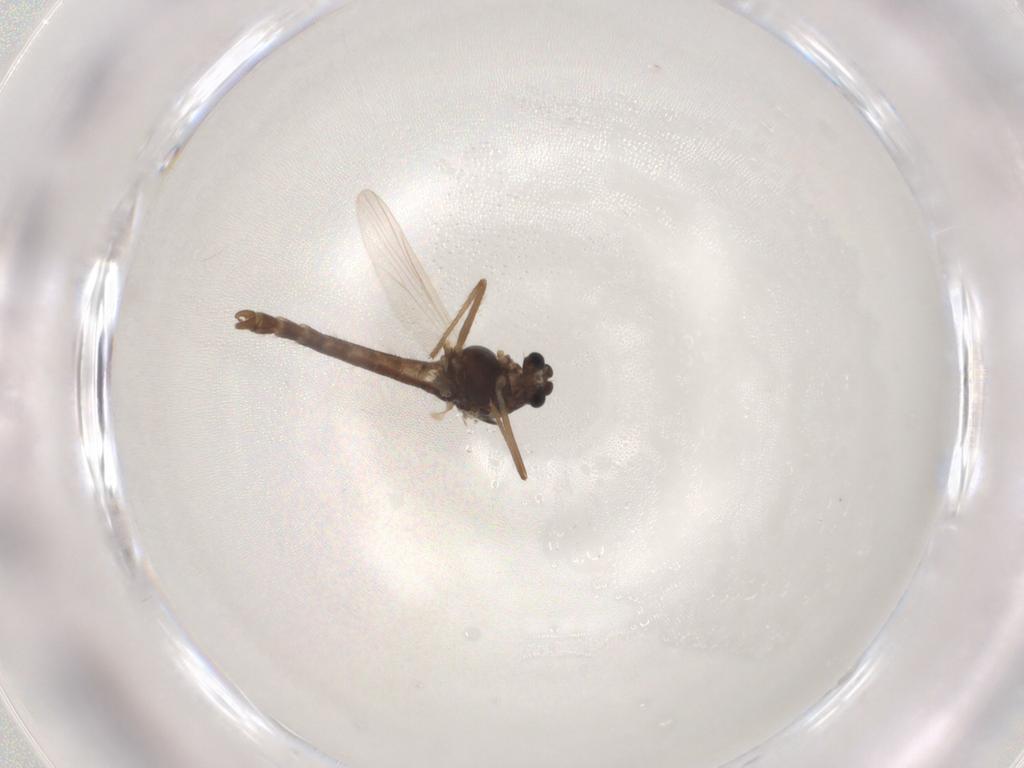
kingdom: Animalia
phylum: Arthropoda
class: Insecta
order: Diptera
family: Chironomidae
